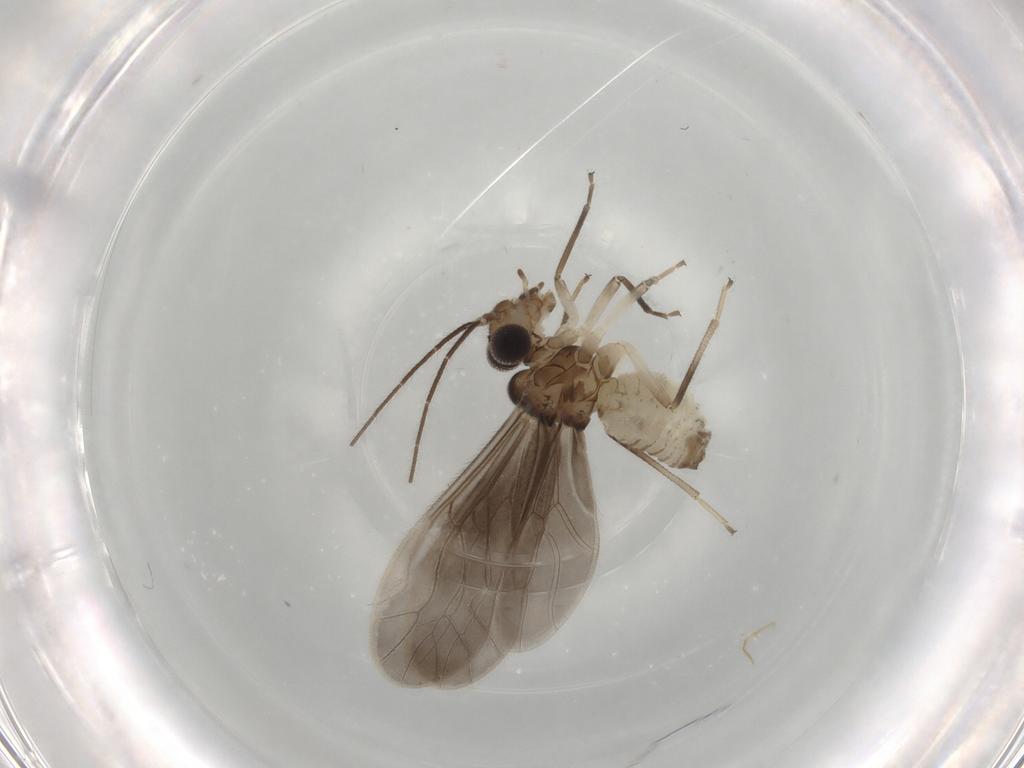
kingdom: Animalia
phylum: Arthropoda
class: Insecta
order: Psocodea
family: Caeciliusidae
